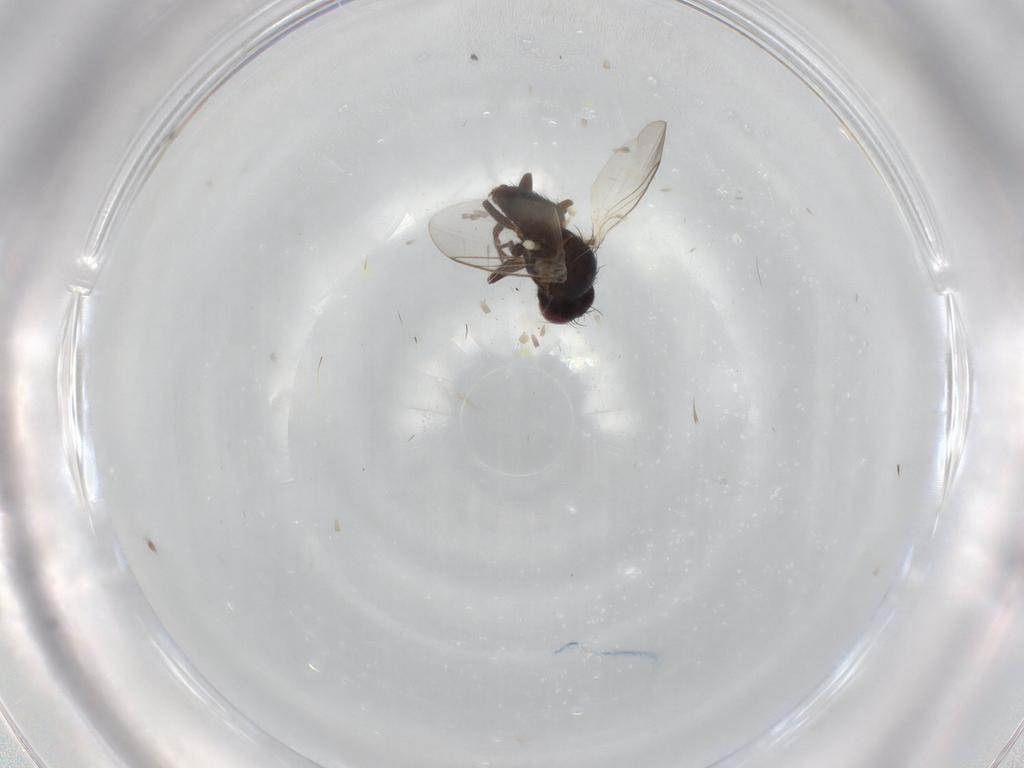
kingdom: Animalia
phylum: Arthropoda
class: Insecta
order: Diptera
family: Agromyzidae
